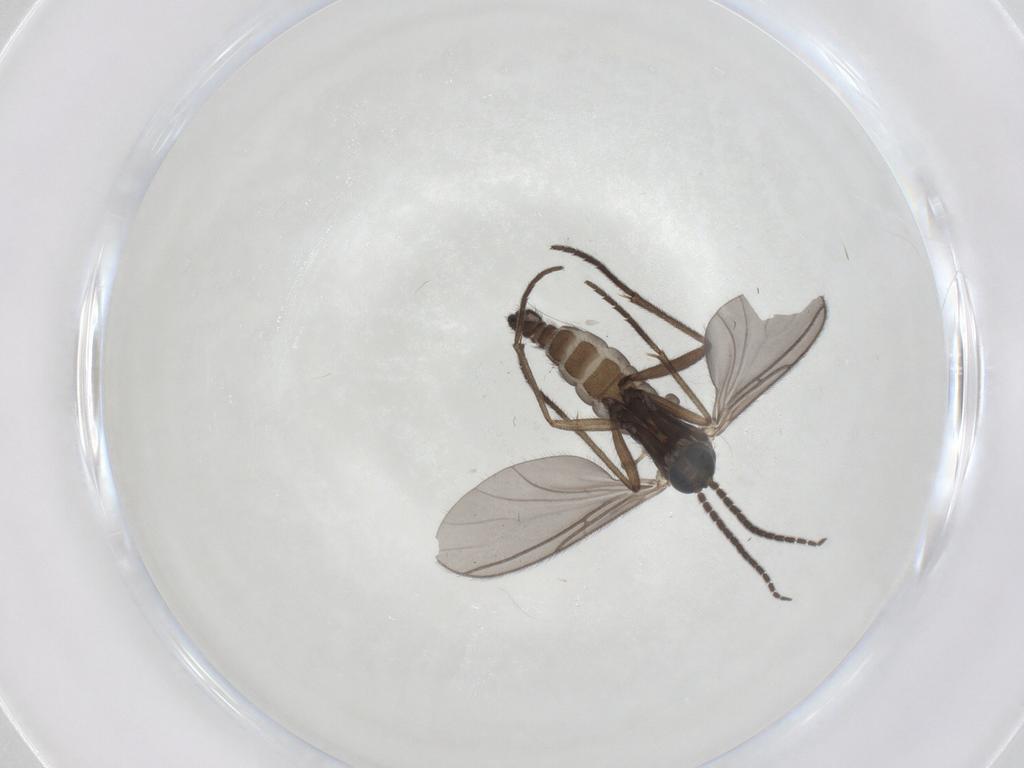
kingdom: Animalia
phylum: Arthropoda
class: Insecta
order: Diptera
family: Sciaridae
